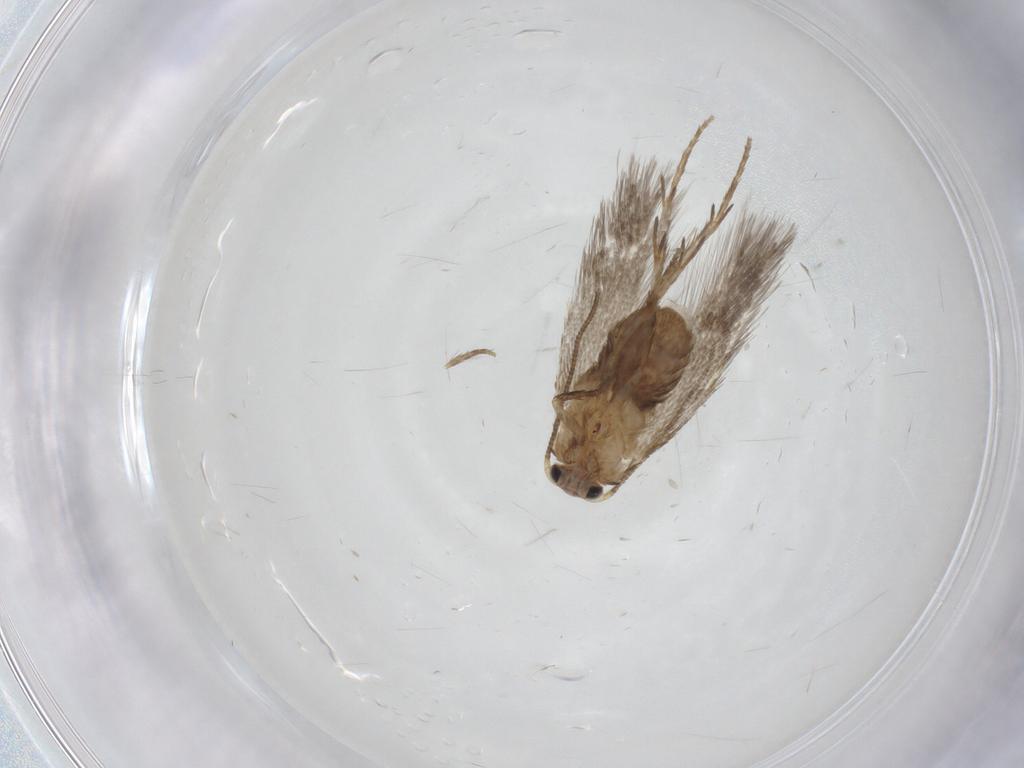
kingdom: Animalia
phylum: Arthropoda
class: Insecta
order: Lepidoptera
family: Nepticulidae
